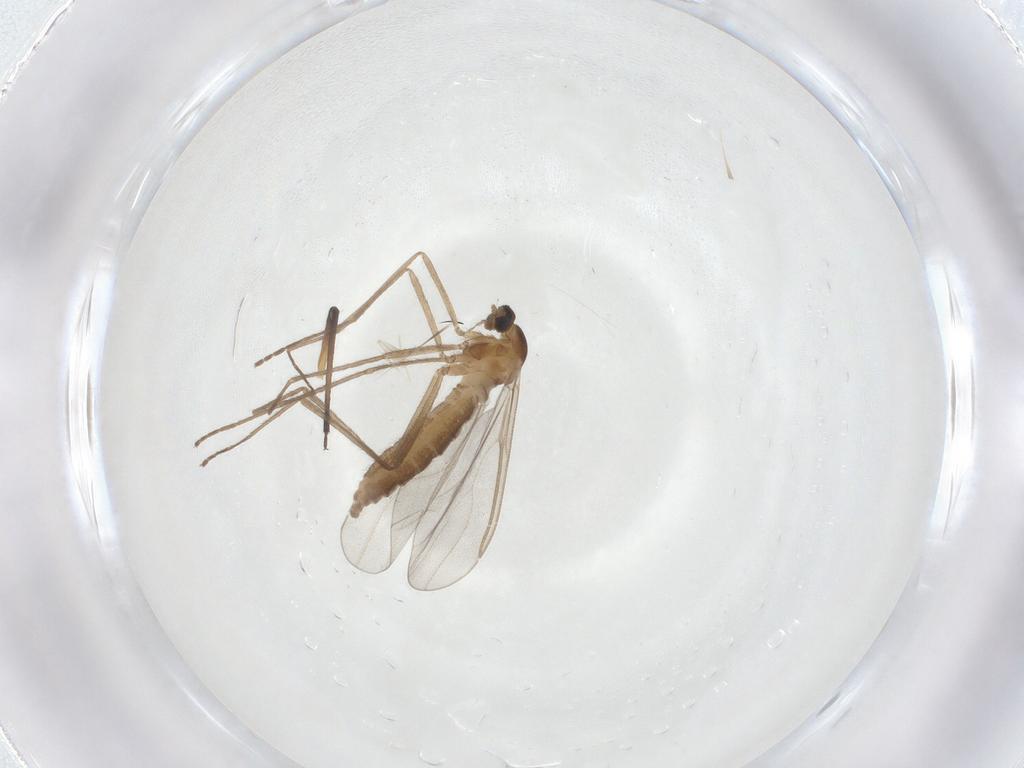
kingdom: Animalia
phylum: Arthropoda
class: Insecta
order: Diptera
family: Cecidomyiidae
